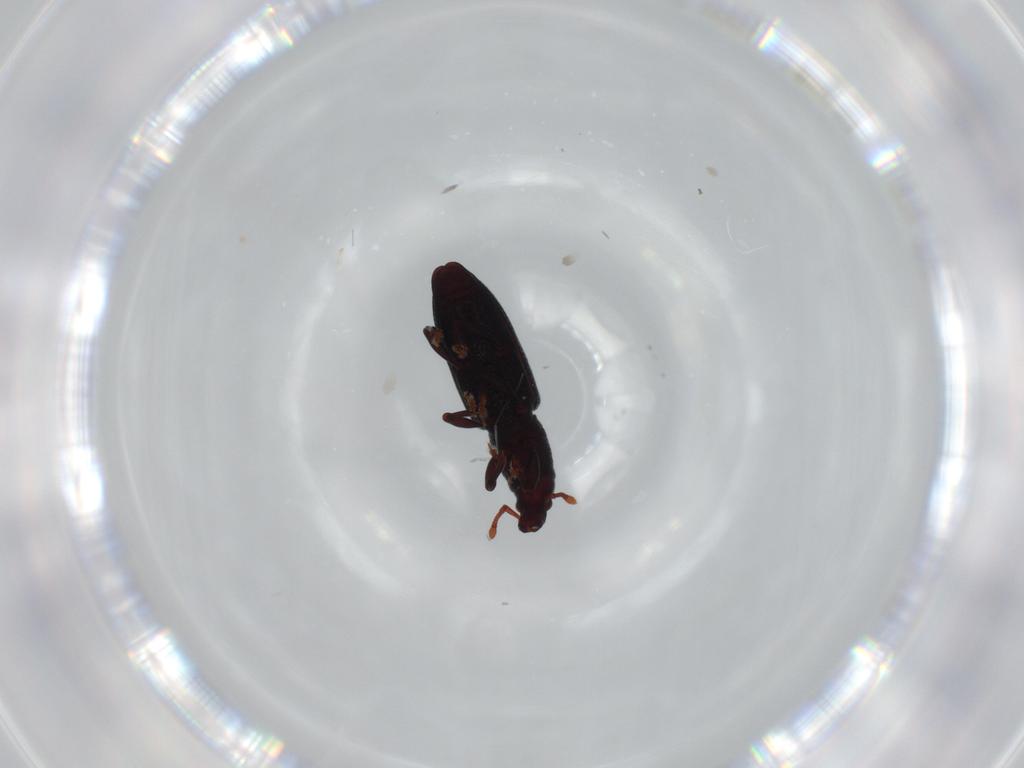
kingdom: Animalia
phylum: Arthropoda
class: Insecta
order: Coleoptera
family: Curculionidae
